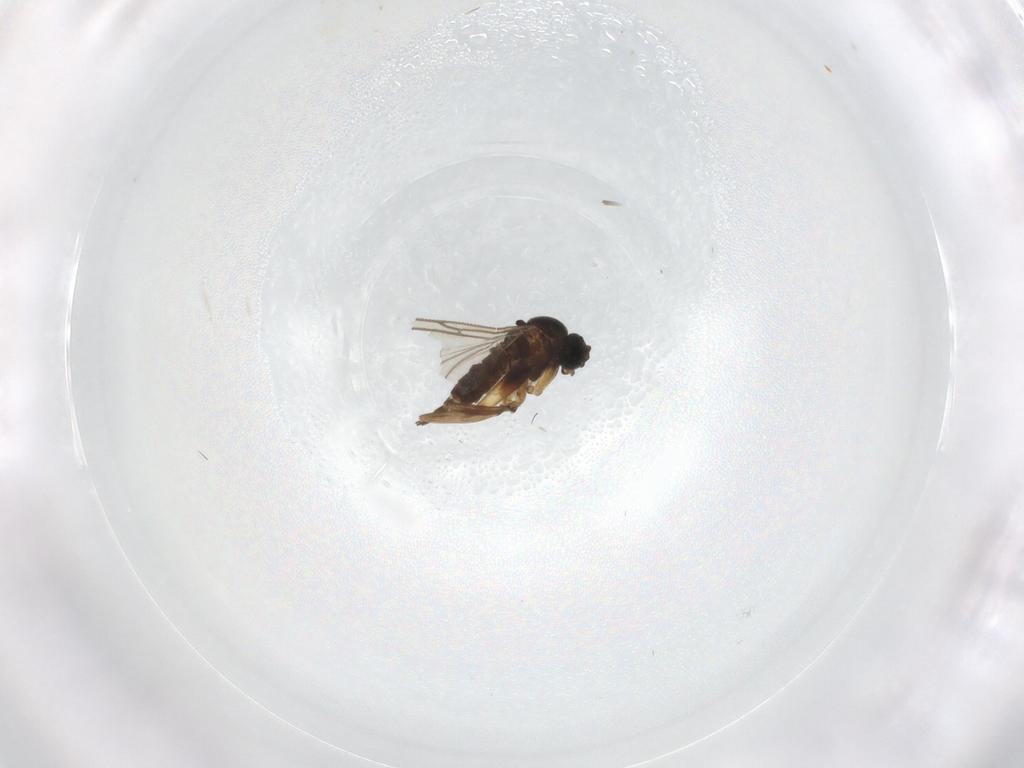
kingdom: Animalia
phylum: Arthropoda
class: Insecta
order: Diptera
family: Sciaridae
